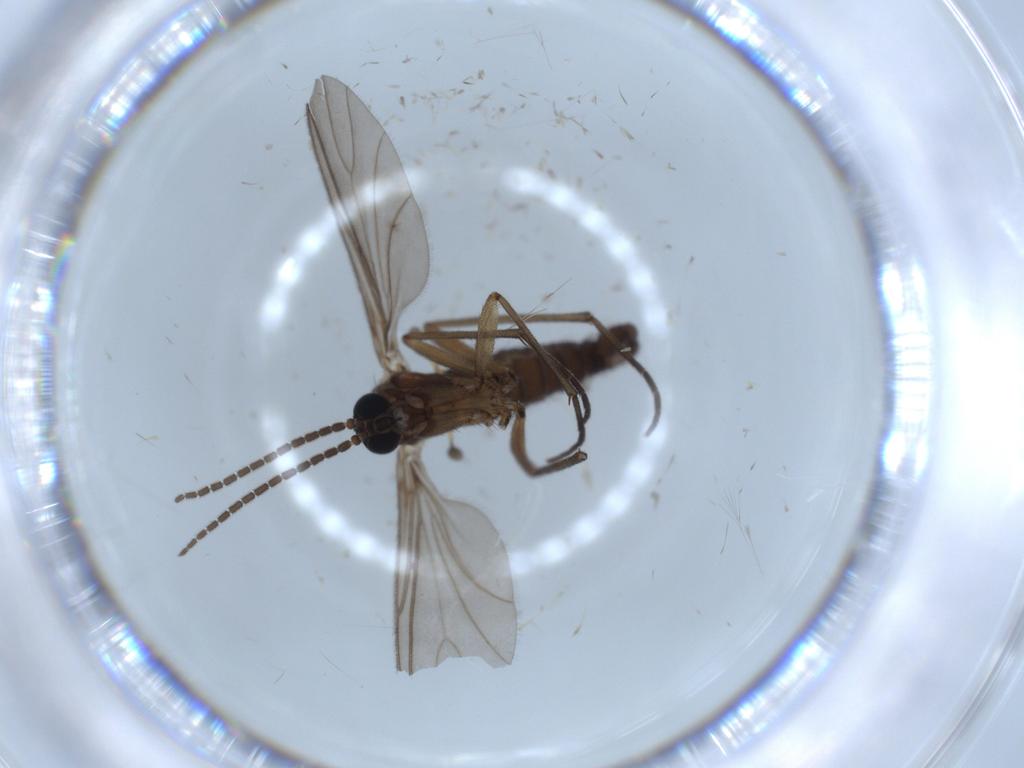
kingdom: Animalia
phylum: Arthropoda
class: Insecta
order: Diptera
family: Sciaridae
